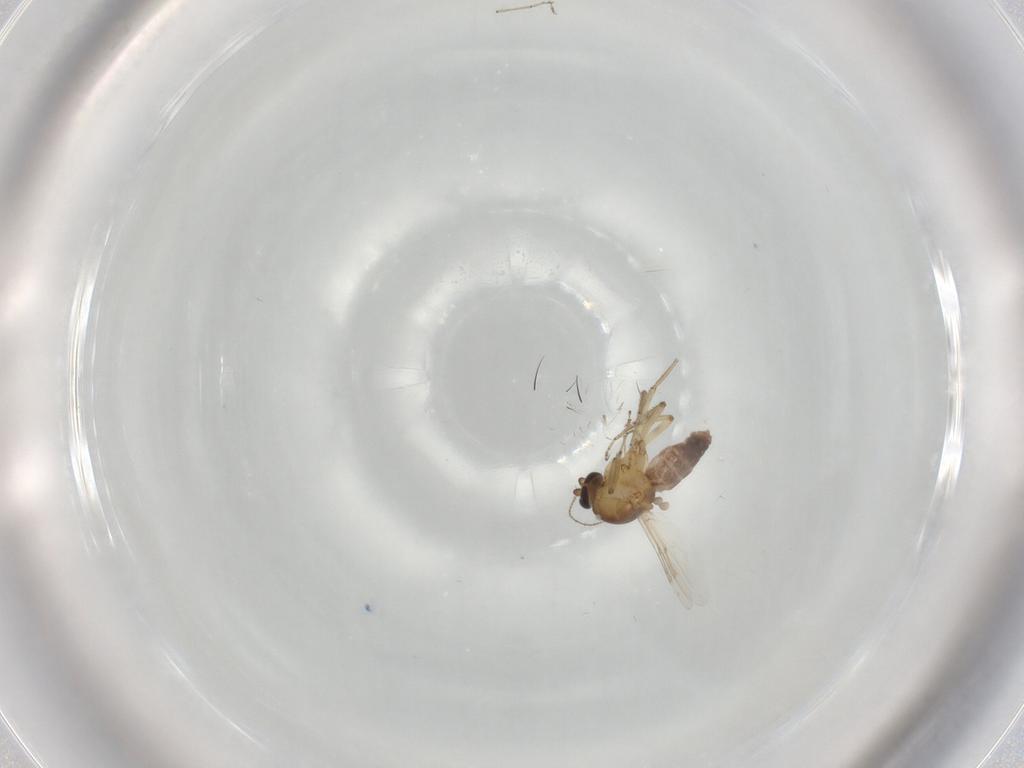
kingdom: Animalia
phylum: Arthropoda
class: Insecta
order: Diptera
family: Ceratopogonidae
